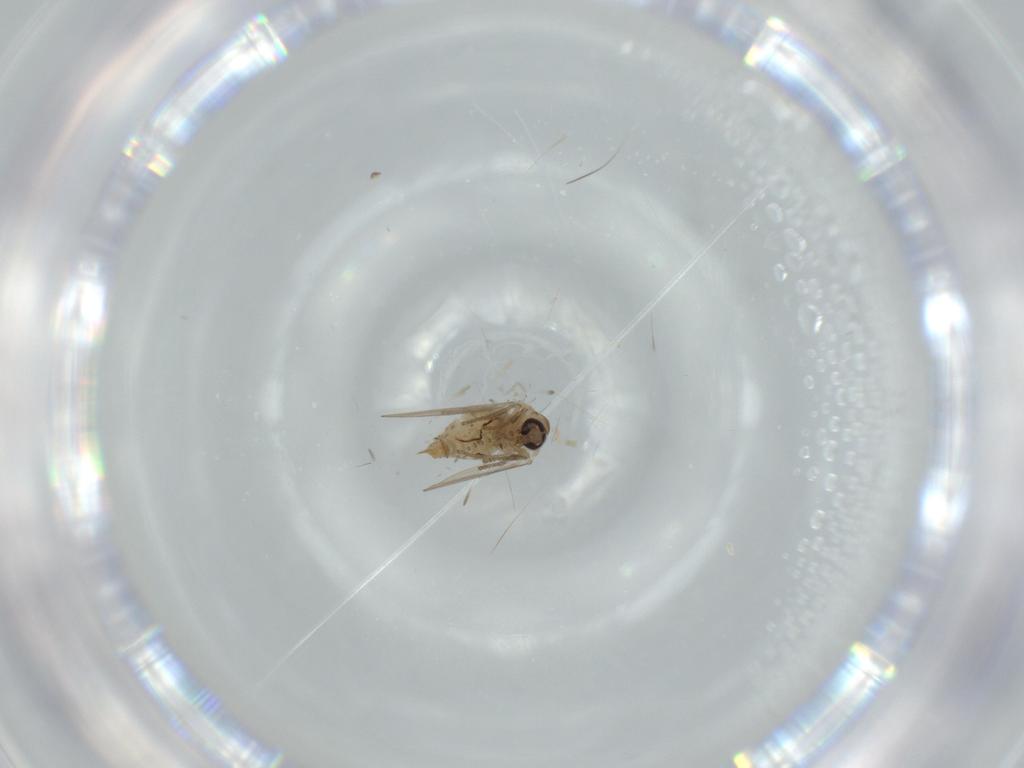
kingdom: Animalia
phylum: Arthropoda
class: Insecta
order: Diptera
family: Psychodidae
